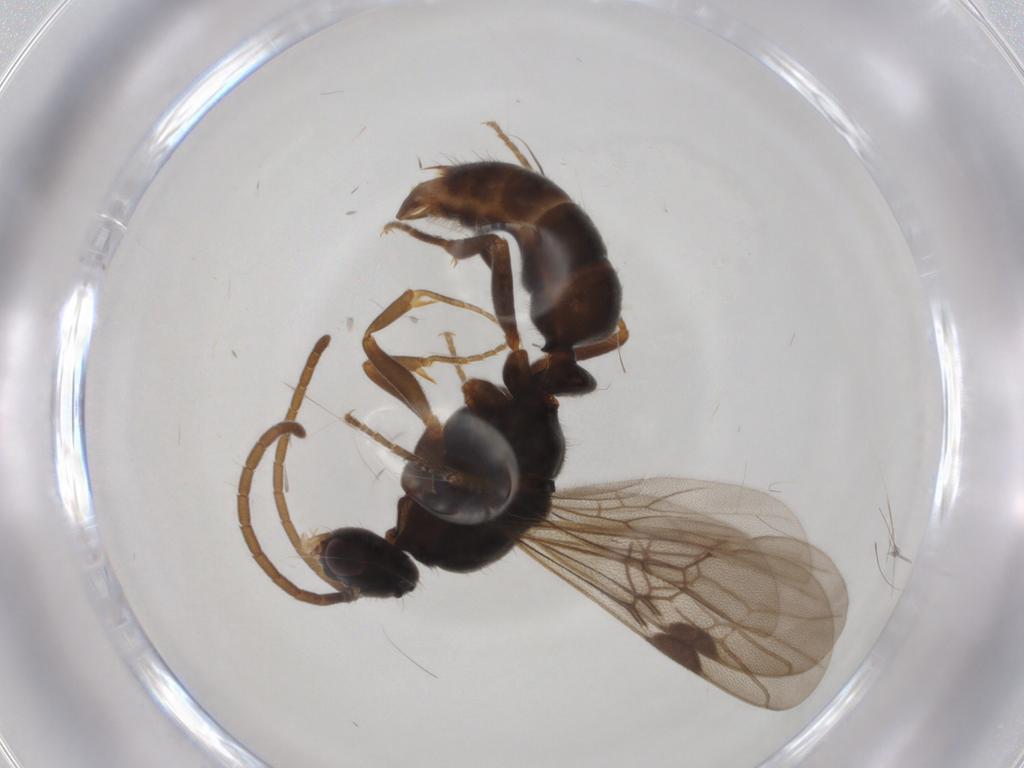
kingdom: Animalia
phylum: Arthropoda
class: Insecta
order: Hymenoptera
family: Formicidae
